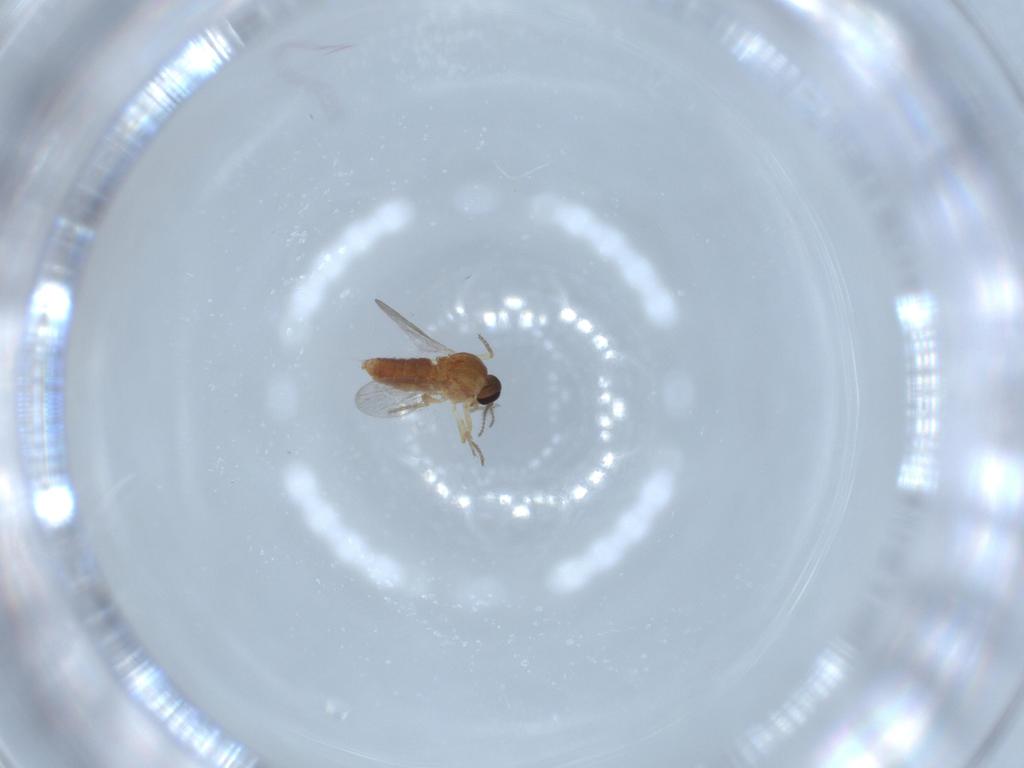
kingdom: Animalia
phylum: Arthropoda
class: Insecta
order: Diptera
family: Ceratopogonidae
